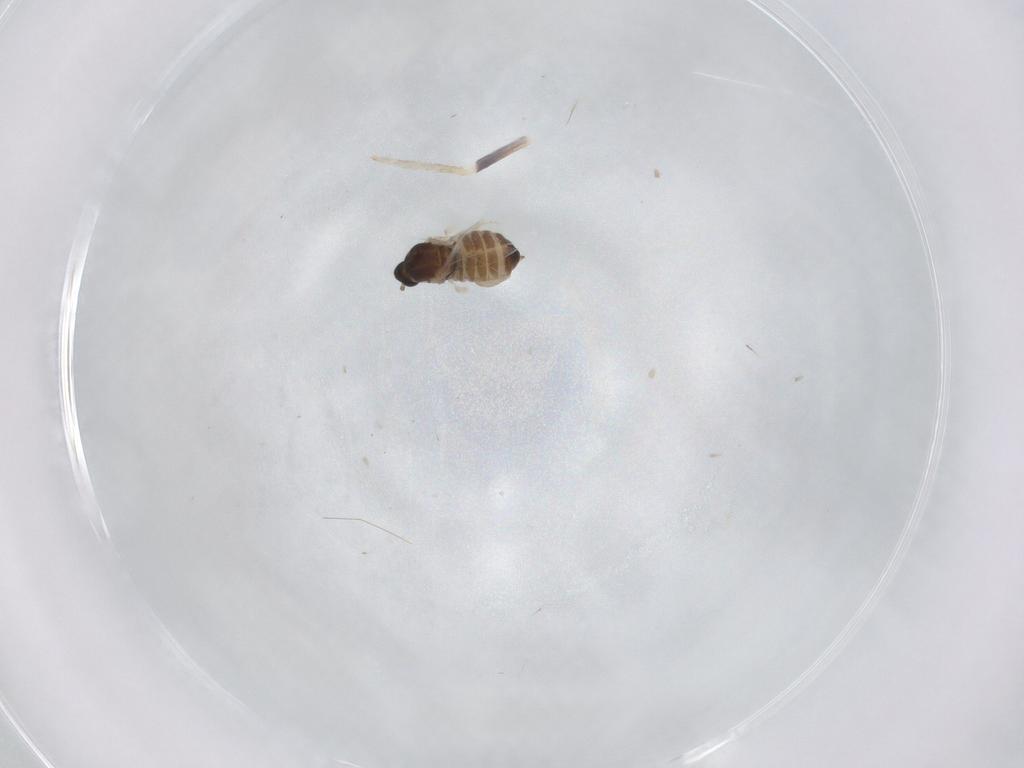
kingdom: Animalia
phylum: Arthropoda
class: Insecta
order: Diptera
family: Cecidomyiidae
